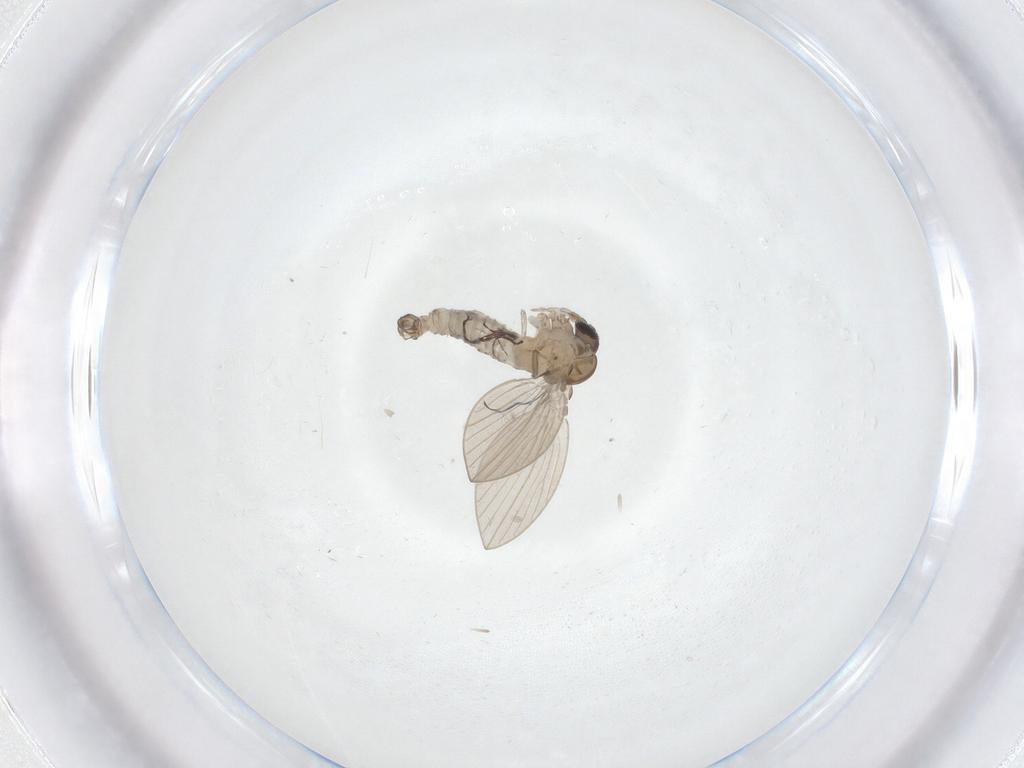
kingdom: Animalia
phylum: Arthropoda
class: Insecta
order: Diptera
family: Psychodidae
